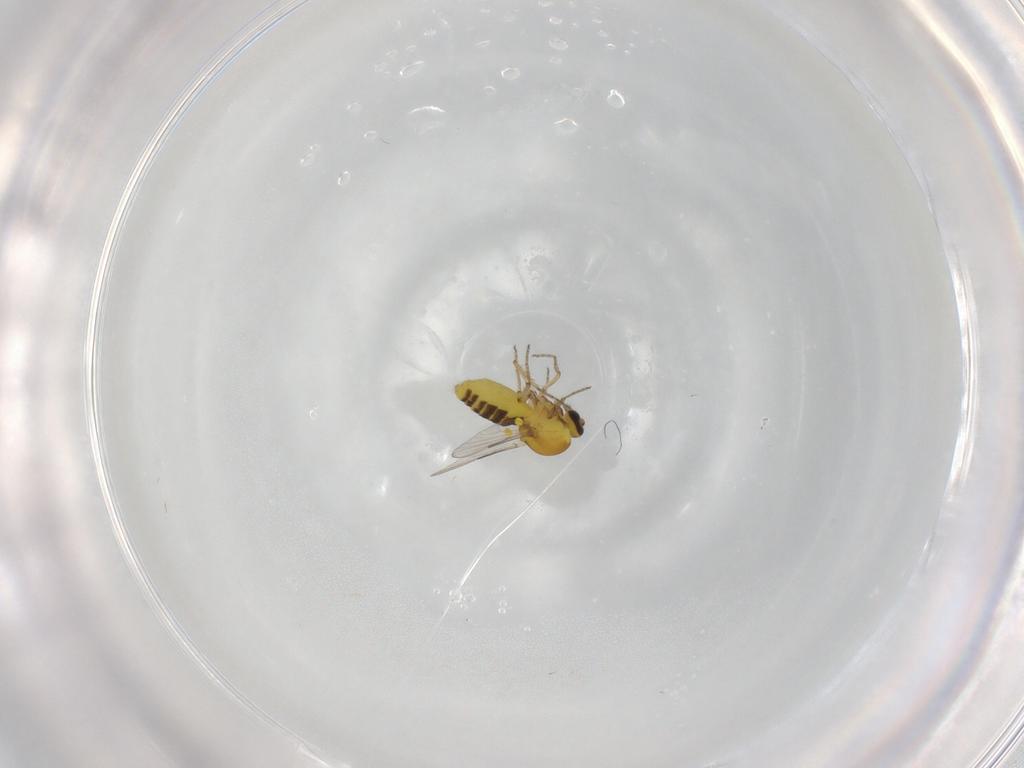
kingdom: Animalia
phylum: Arthropoda
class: Insecta
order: Diptera
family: Ceratopogonidae
